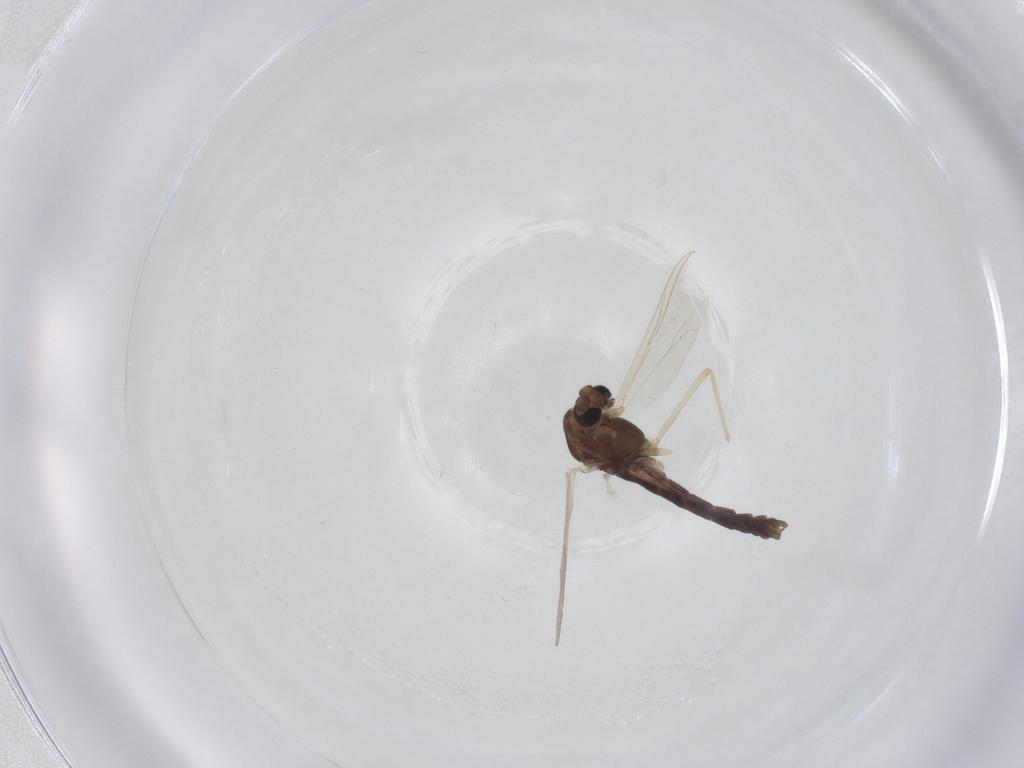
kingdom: Animalia
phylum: Arthropoda
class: Insecta
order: Diptera
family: Chironomidae
